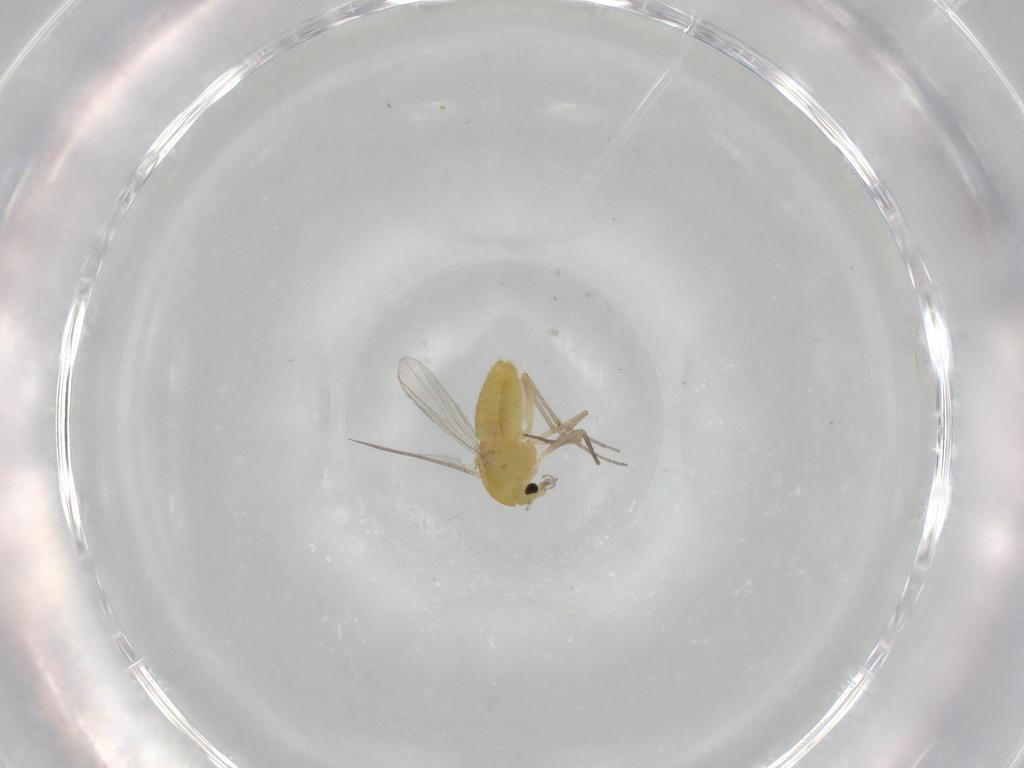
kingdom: Animalia
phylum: Arthropoda
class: Insecta
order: Diptera
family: Chironomidae
